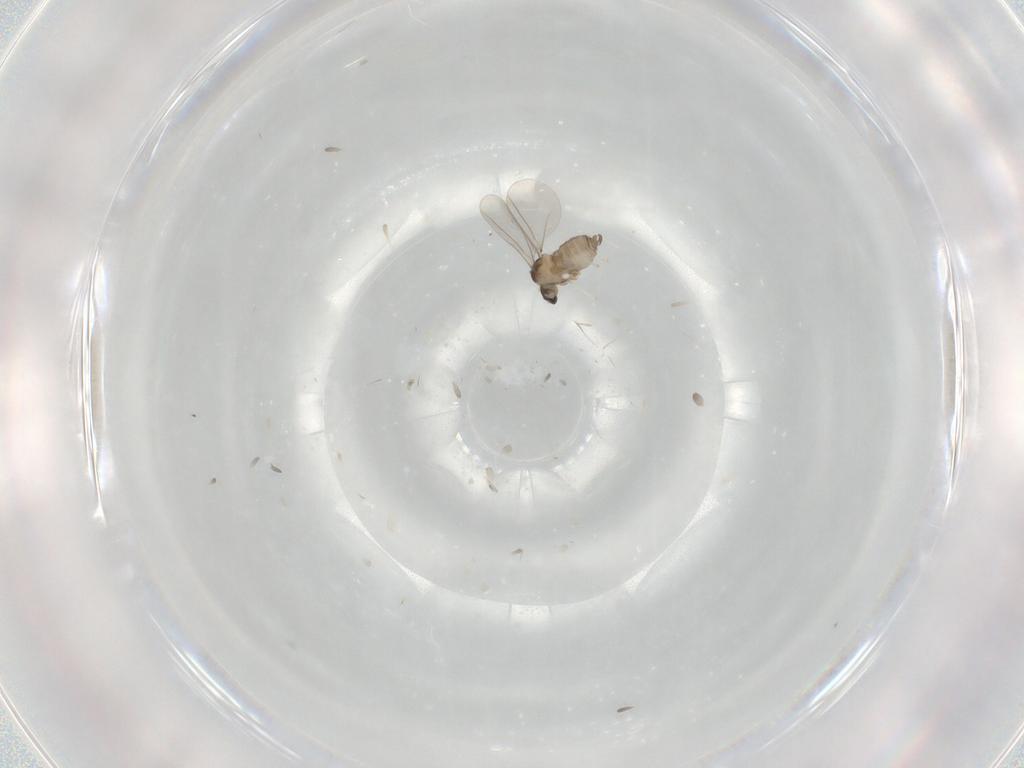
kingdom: Animalia
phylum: Arthropoda
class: Insecta
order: Diptera
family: Cecidomyiidae
